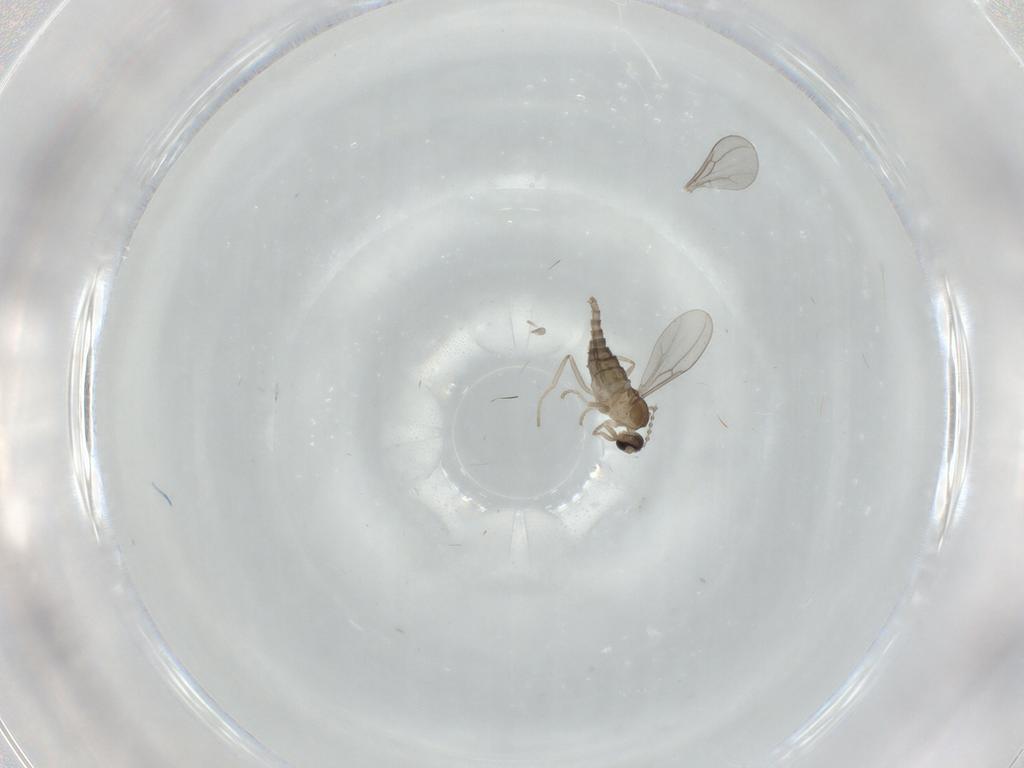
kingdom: Animalia
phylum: Arthropoda
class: Insecta
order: Diptera
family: Cecidomyiidae
